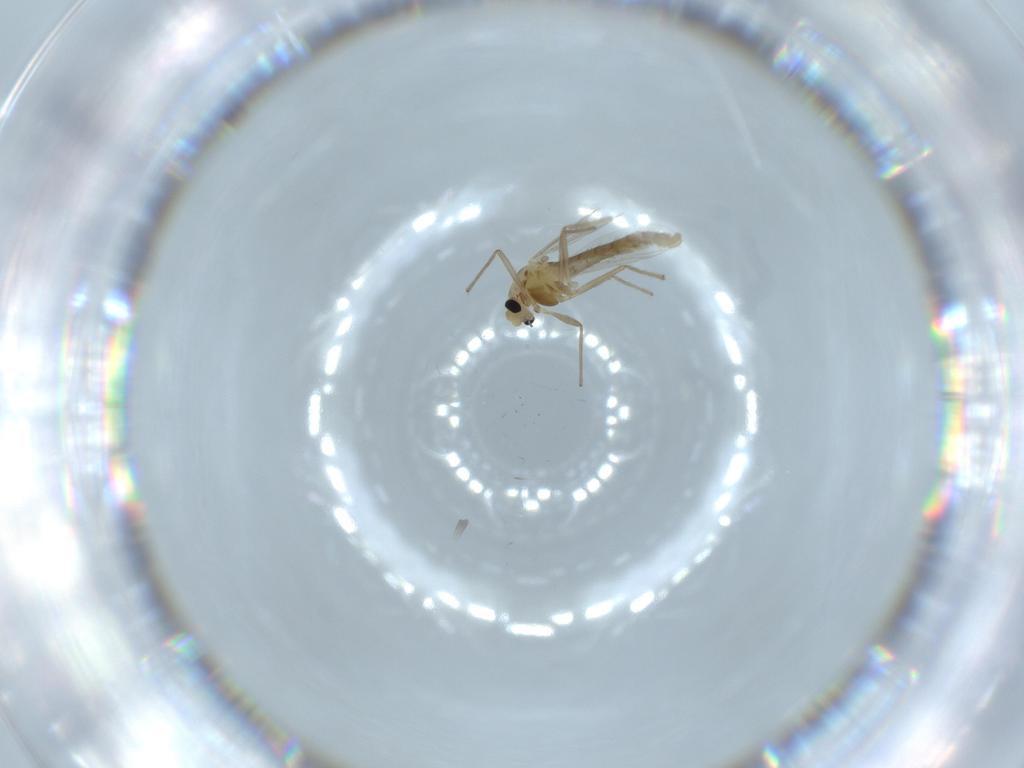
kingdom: Animalia
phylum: Arthropoda
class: Insecta
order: Diptera
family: Chironomidae
